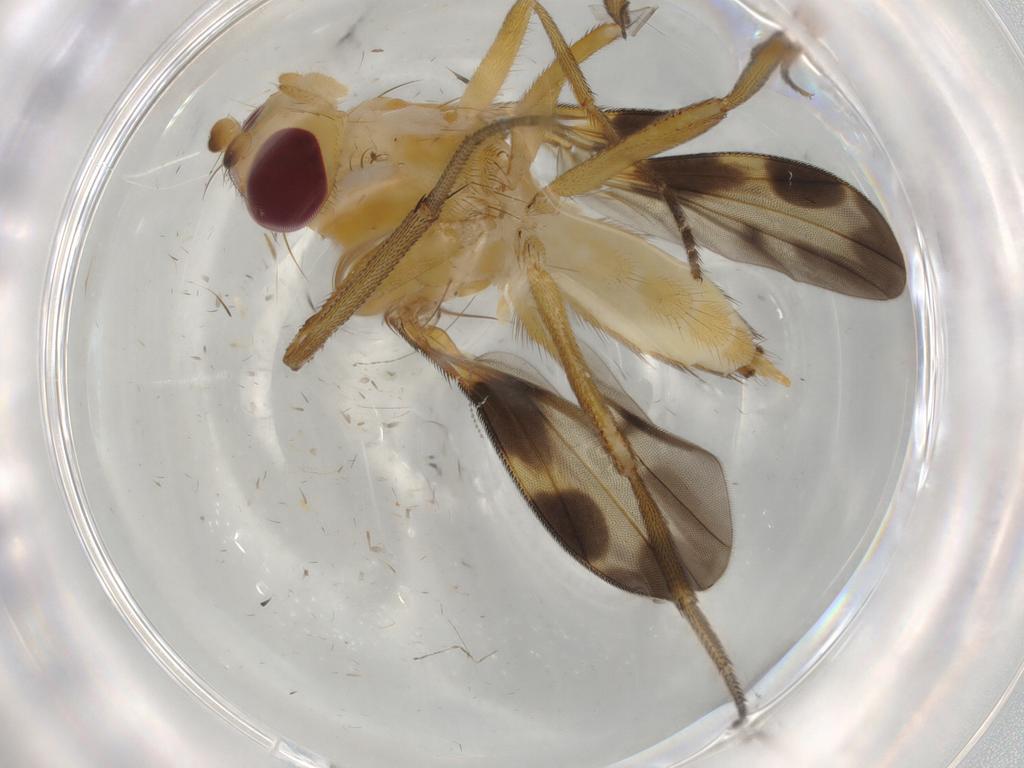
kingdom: Animalia
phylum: Arthropoda
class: Insecta
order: Diptera
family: Clusiidae
